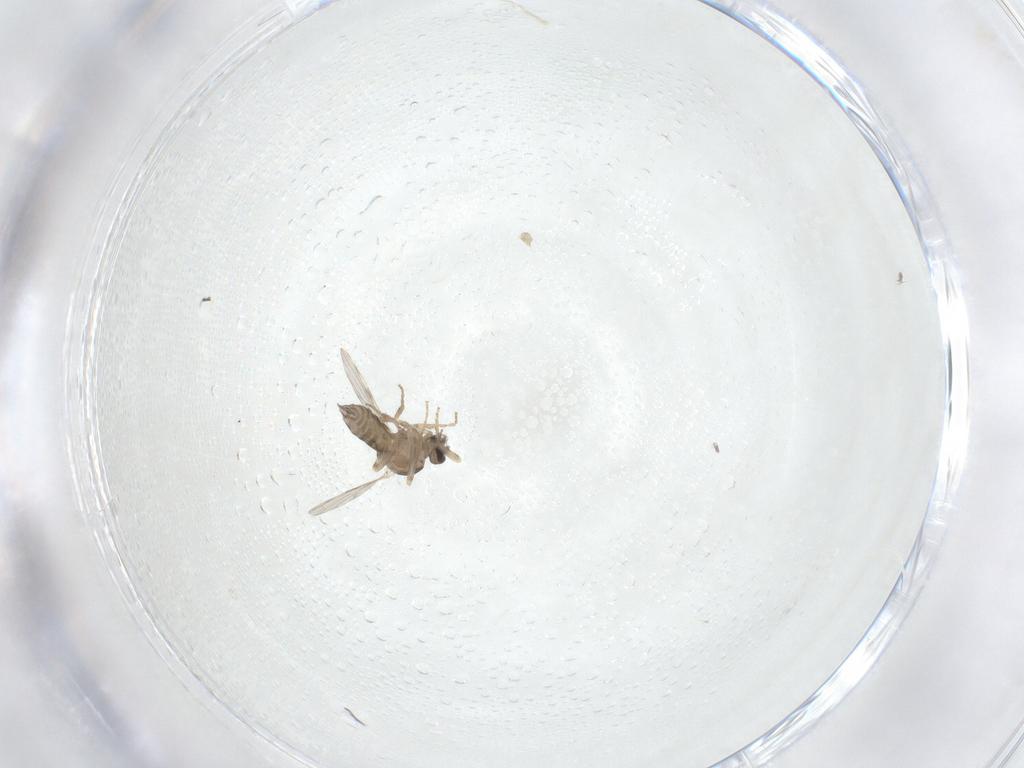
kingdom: Animalia
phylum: Arthropoda
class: Insecta
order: Diptera
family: Ceratopogonidae
